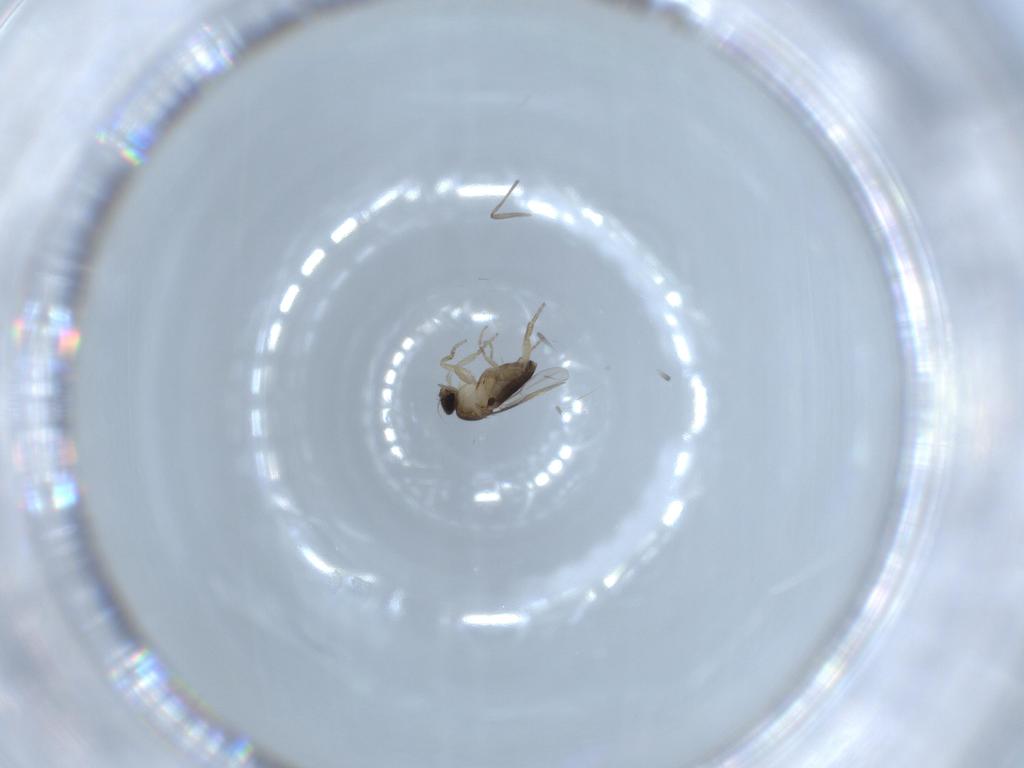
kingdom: Animalia
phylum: Arthropoda
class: Insecta
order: Diptera
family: Phoridae
